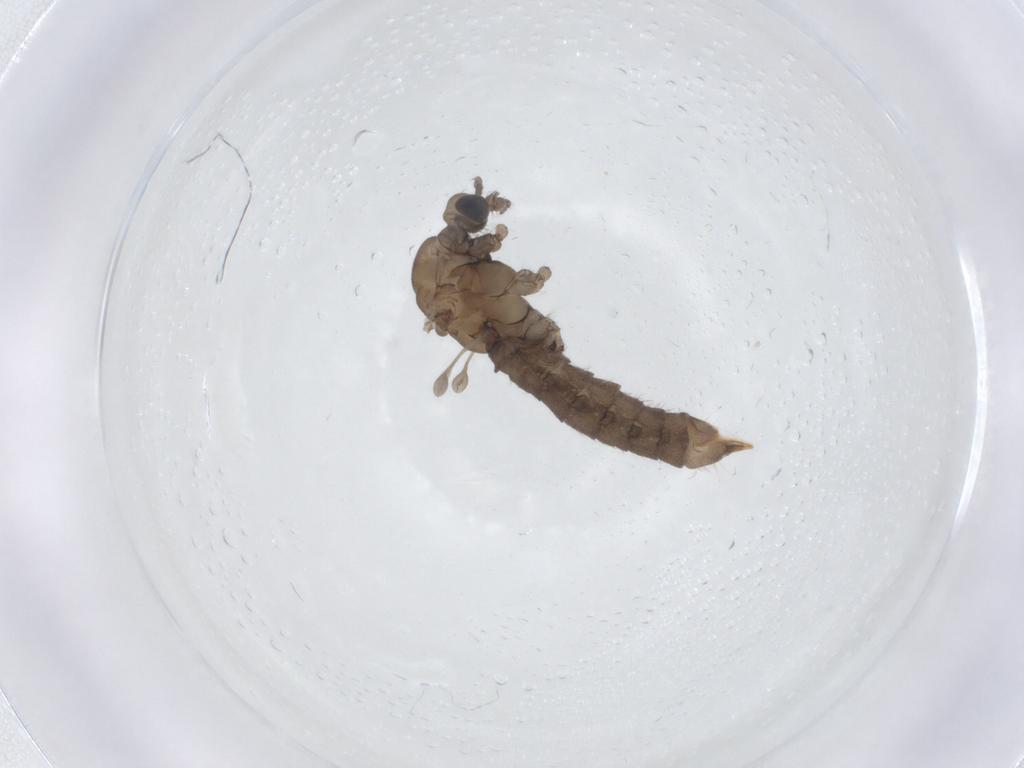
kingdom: Animalia
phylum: Arthropoda
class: Insecta
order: Diptera
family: Limoniidae
